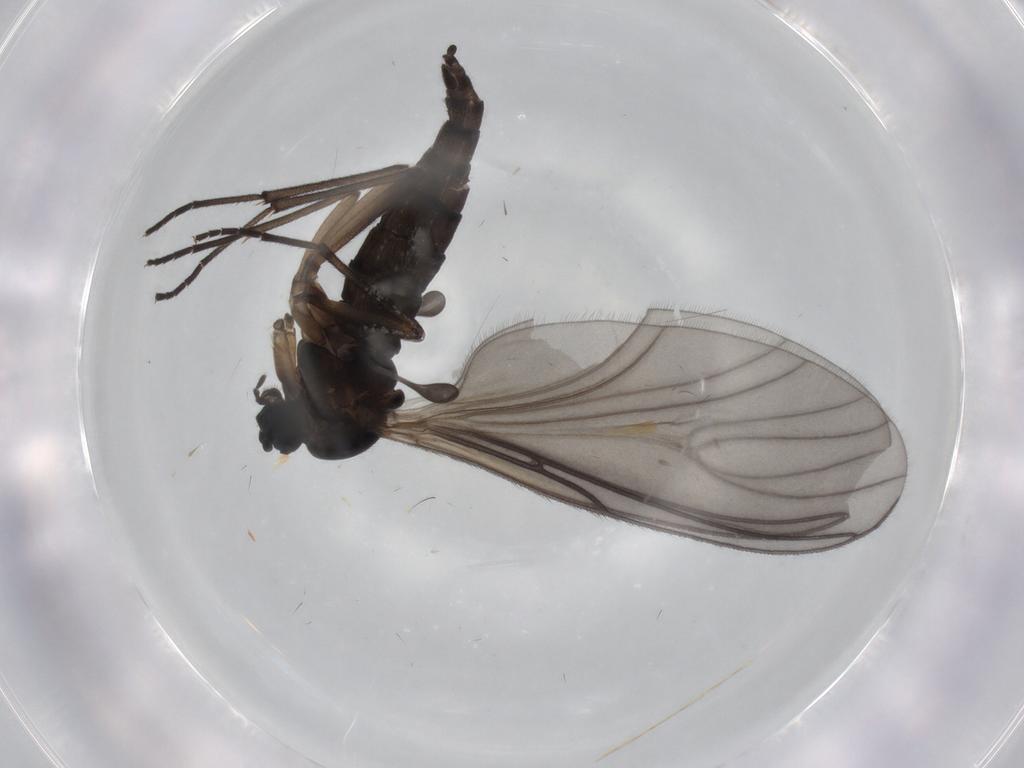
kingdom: Animalia
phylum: Arthropoda
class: Insecta
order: Diptera
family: Sciaridae
